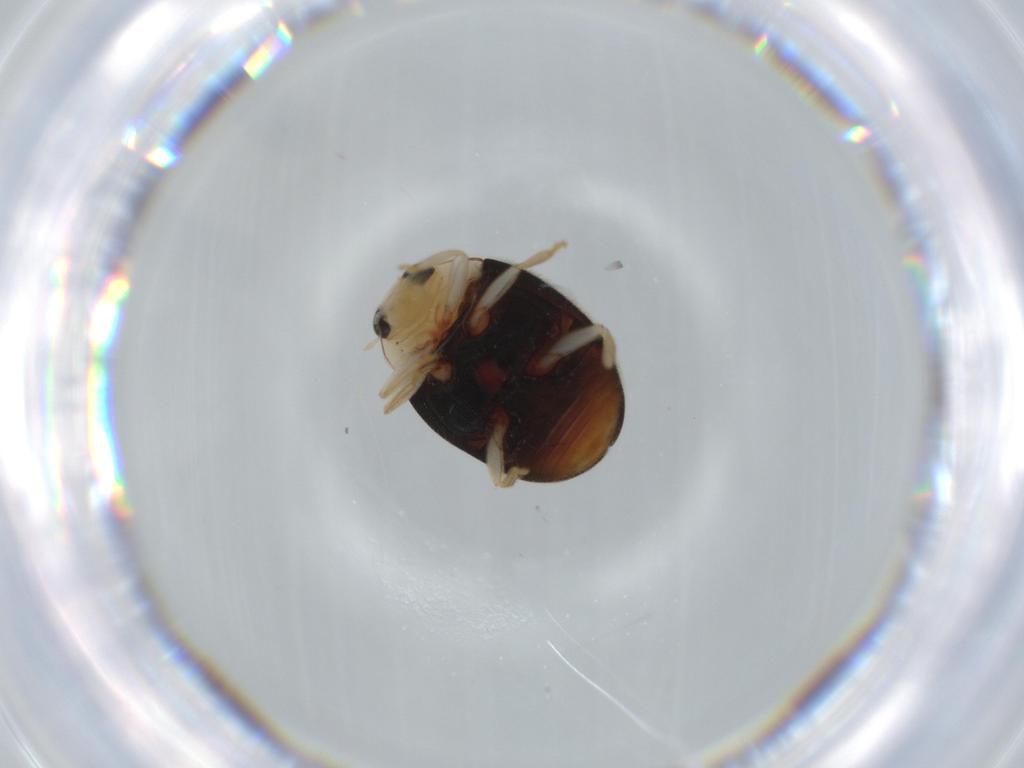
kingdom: Animalia
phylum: Arthropoda
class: Insecta
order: Coleoptera
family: Coccinellidae
